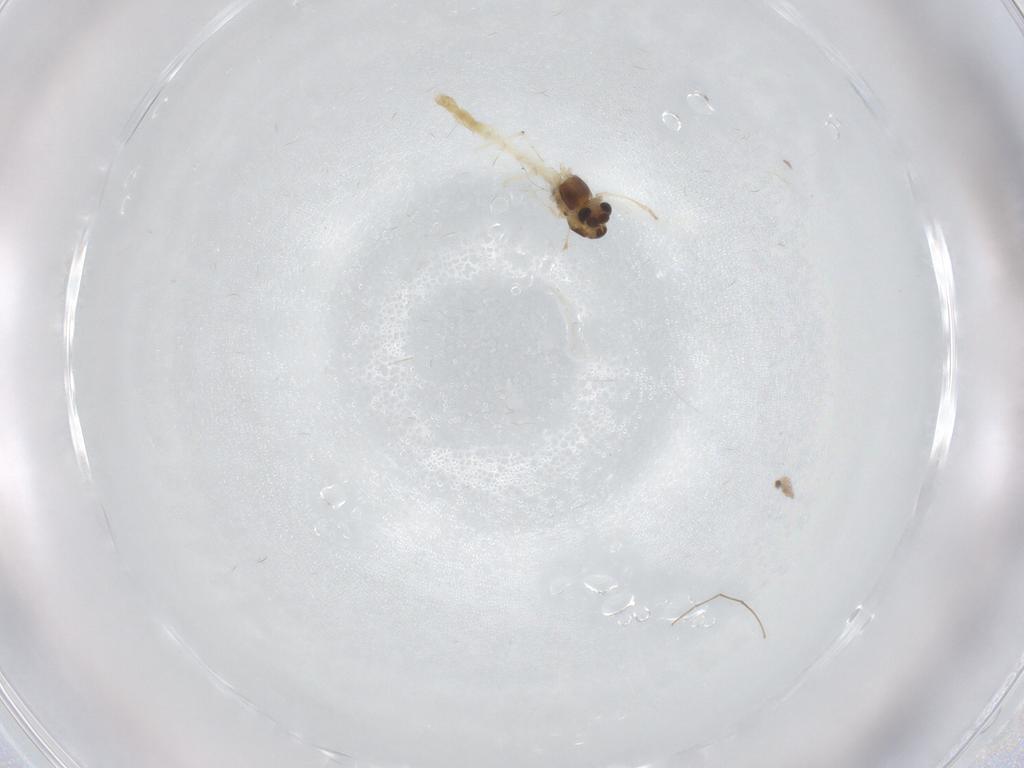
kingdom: Animalia
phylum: Arthropoda
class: Insecta
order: Diptera
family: Chironomidae
